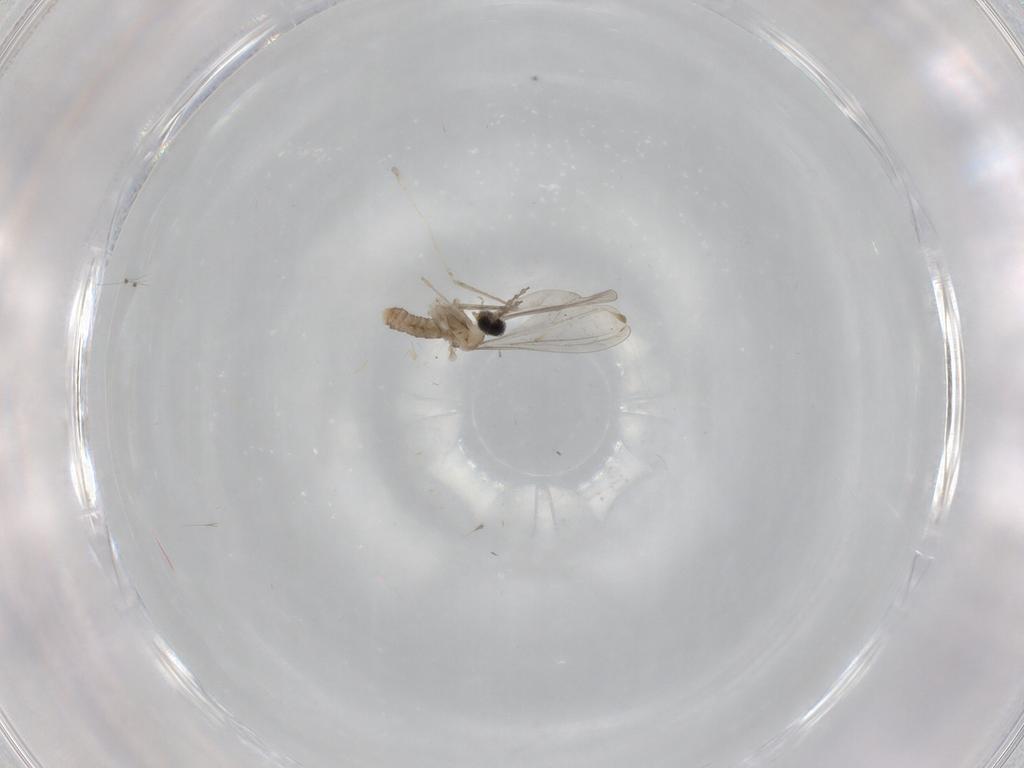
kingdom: Animalia
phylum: Arthropoda
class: Insecta
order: Diptera
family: Cecidomyiidae
